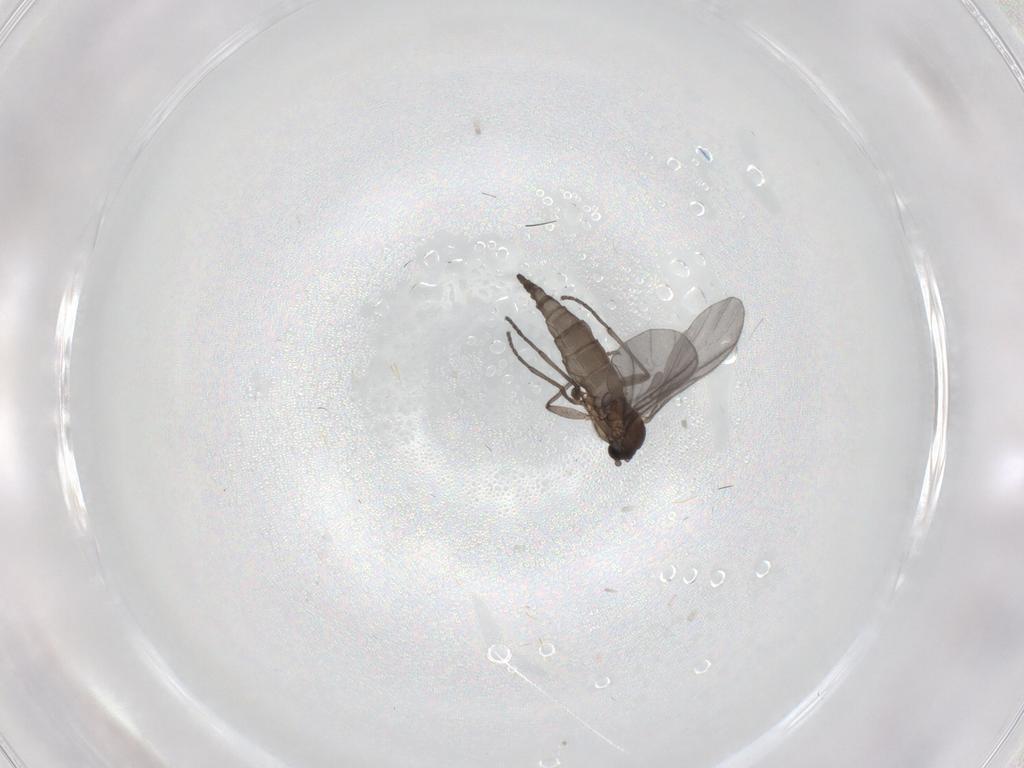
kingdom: Animalia
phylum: Arthropoda
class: Insecta
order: Diptera
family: Sciaridae
